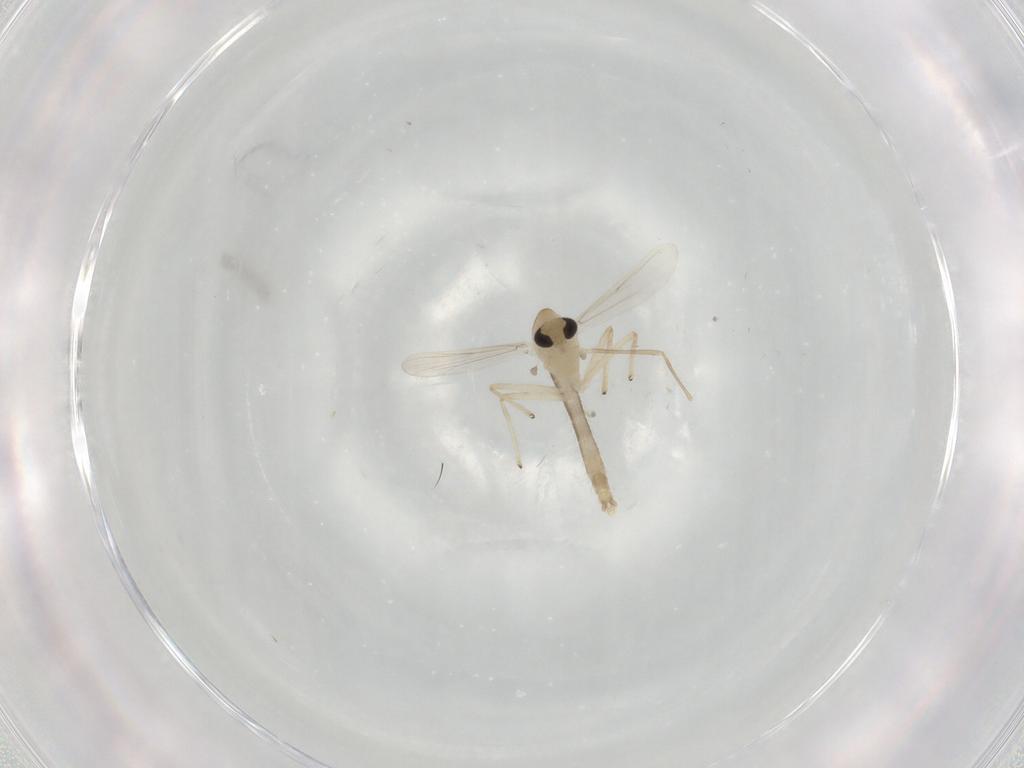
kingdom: Animalia
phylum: Arthropoda
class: Insecta
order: Diptera
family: Chironomidae
